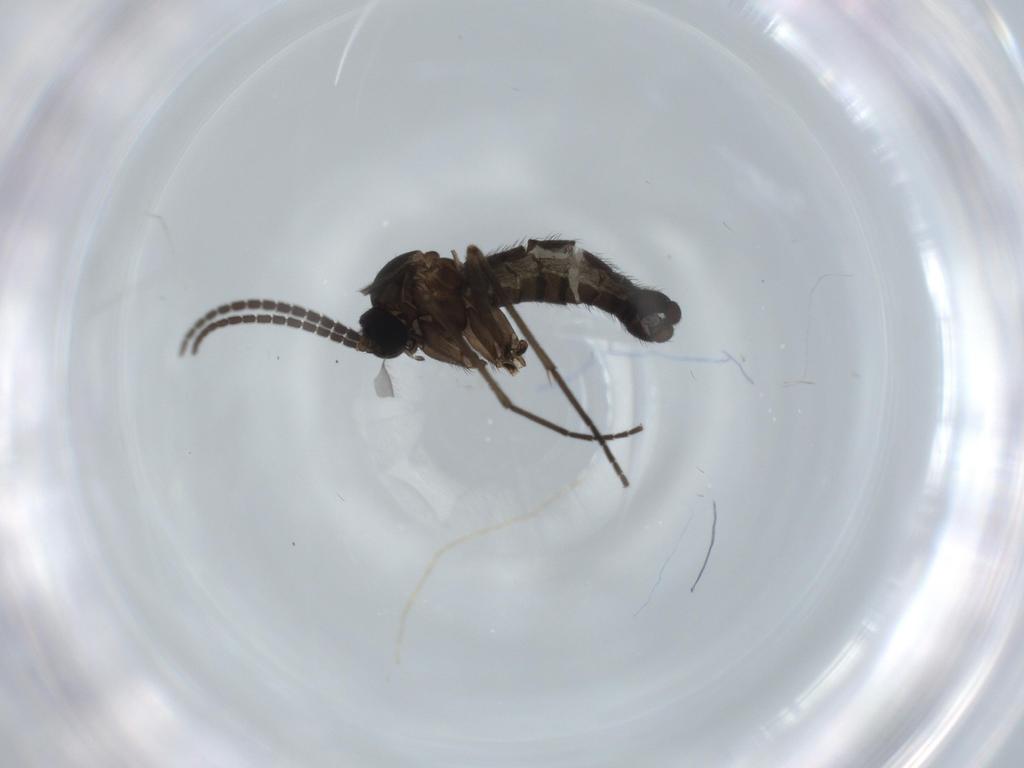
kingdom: Animalia
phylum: Arthropoda
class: Insecta
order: Diptera
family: Sciaridae
